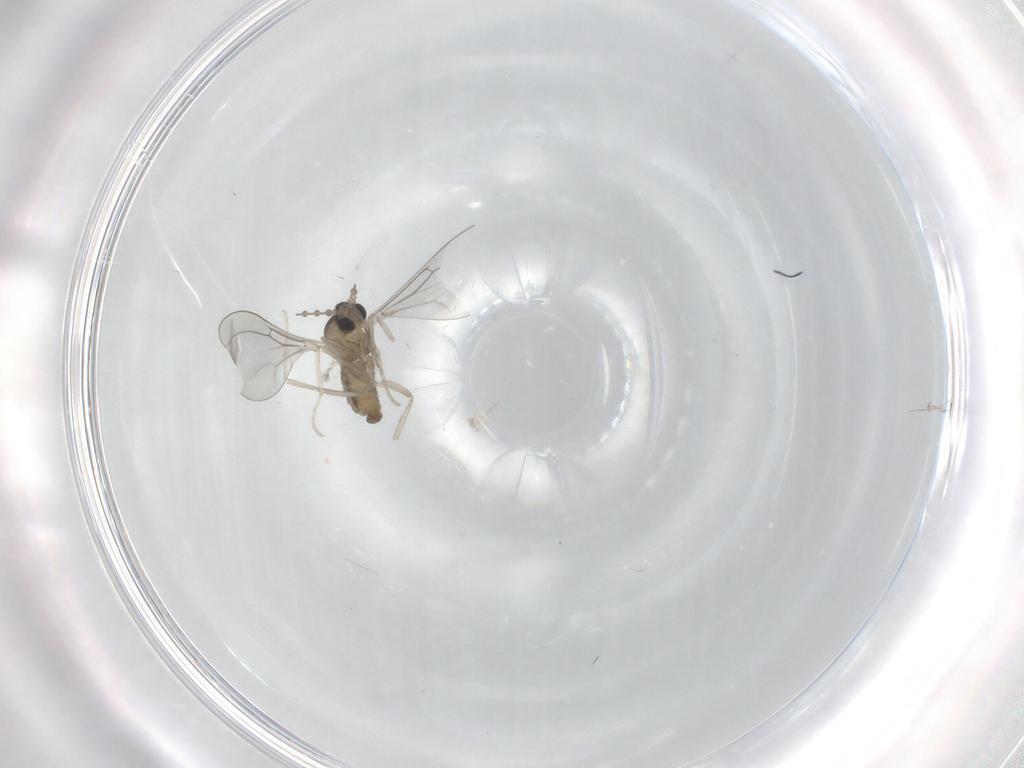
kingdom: Animalia
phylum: Arthropoda
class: Insecta
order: Diptera
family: Cecidomyiidae
